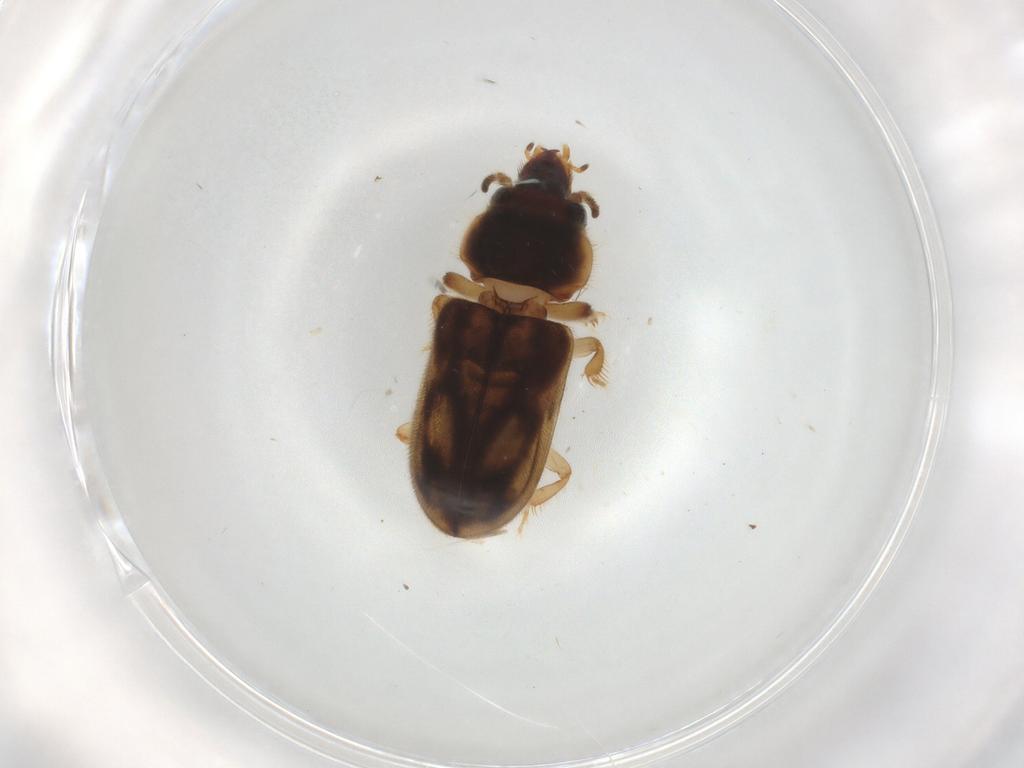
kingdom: Animalia
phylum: Arthropoda
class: Insecta
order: Coleoptera
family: Heteroceridae
